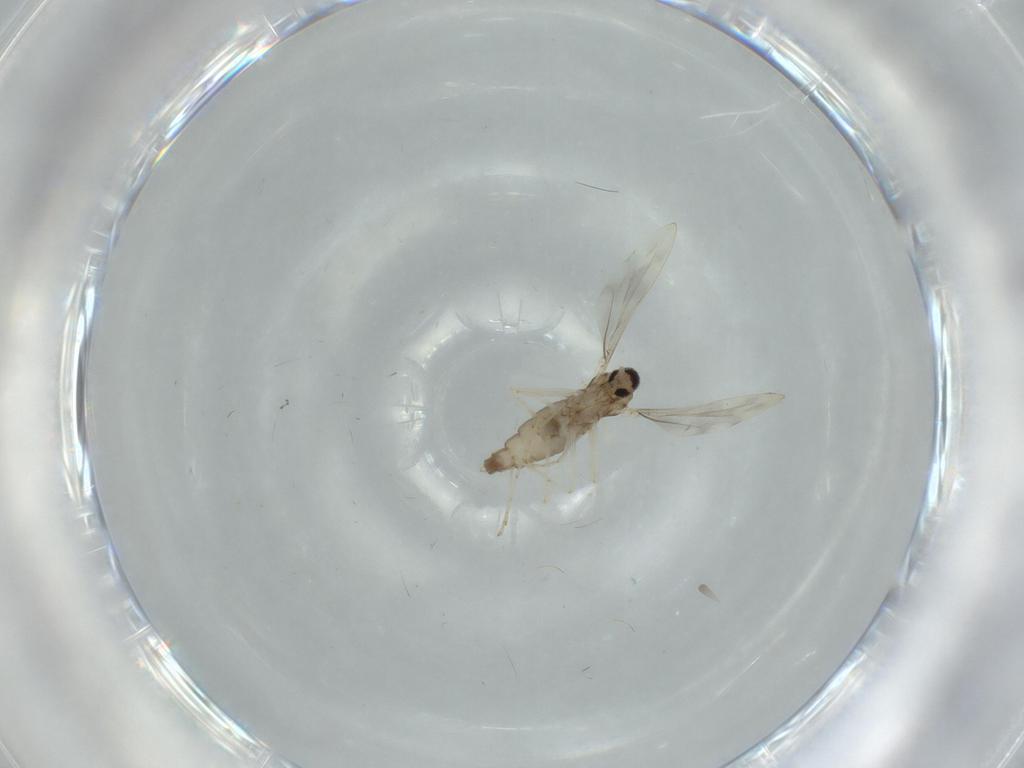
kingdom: Animalia
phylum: Arthropoda
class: Insecta
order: Diptera
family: Cecidomyiidae
